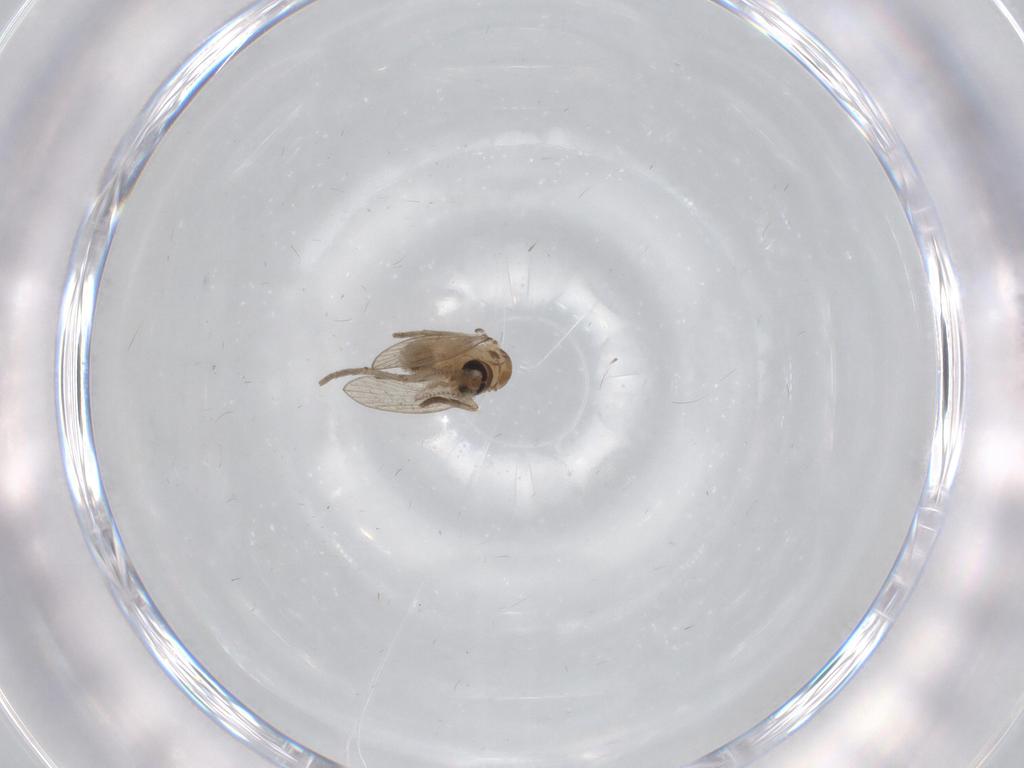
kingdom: Animalia
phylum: Arthropoda
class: Insecta
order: Diptera
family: Psychodidae
